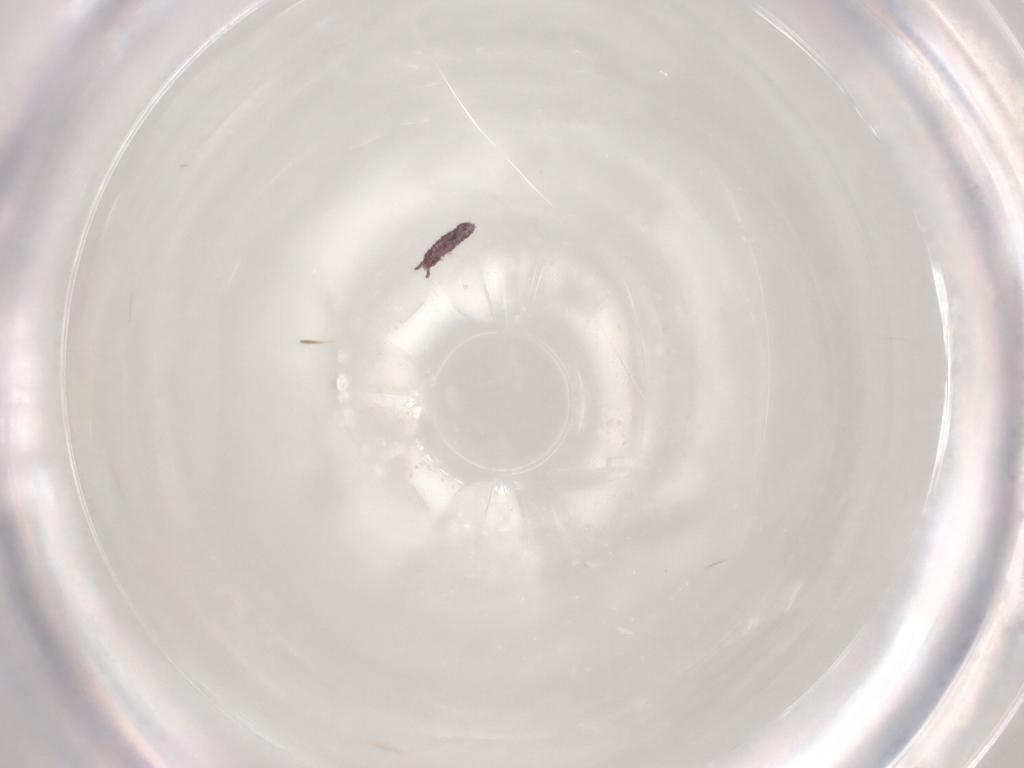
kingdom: Animalia
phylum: Arthropoda
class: Collembola
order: Poduromorpha
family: Hypogastruridae
